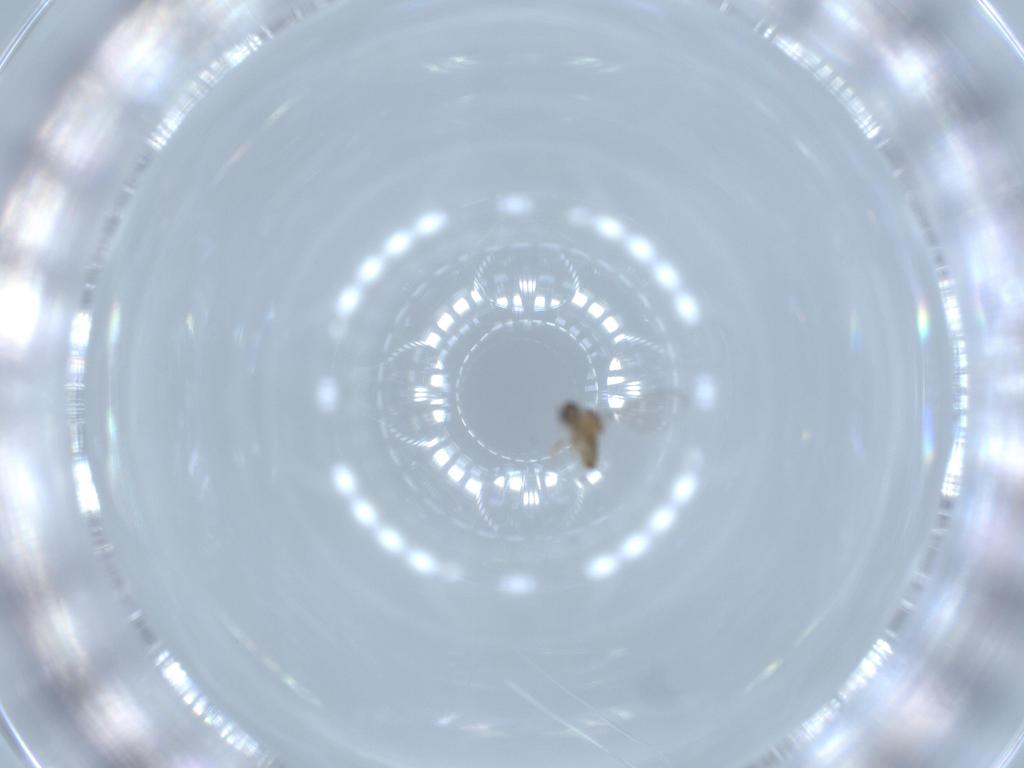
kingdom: Animalia
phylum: Arthropoda
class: Insecta
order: Diptera
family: Cecidomyiidae
